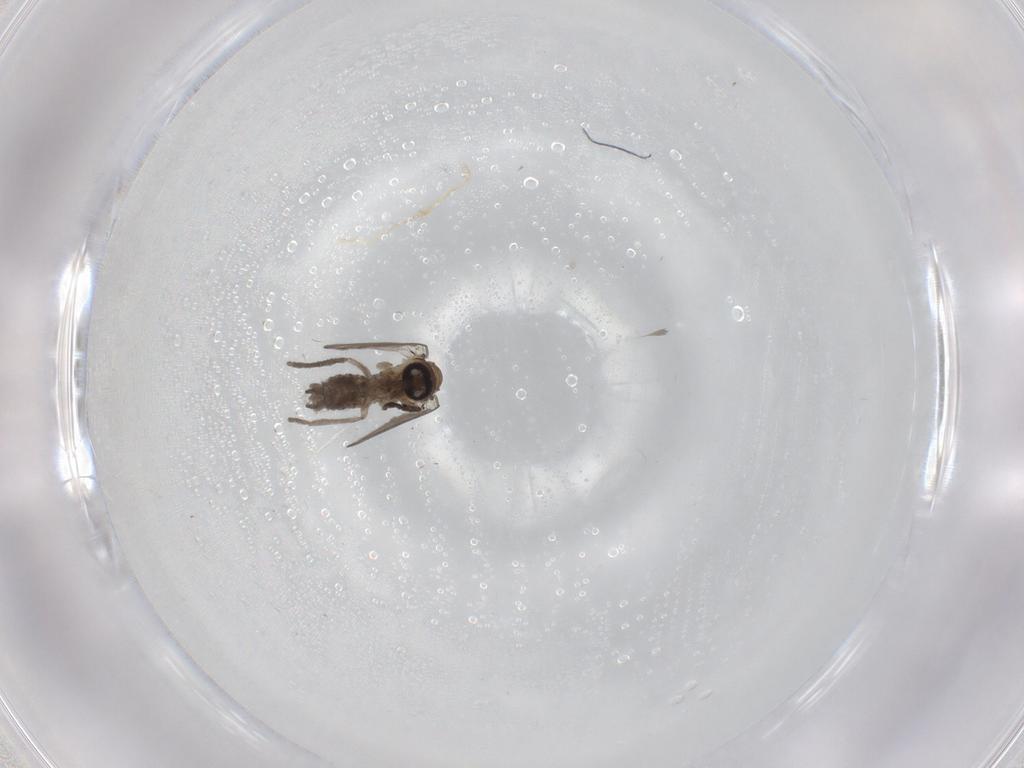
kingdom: Animalia
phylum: Arthropoda
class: Insecta
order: Diptera
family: Psychodidae
